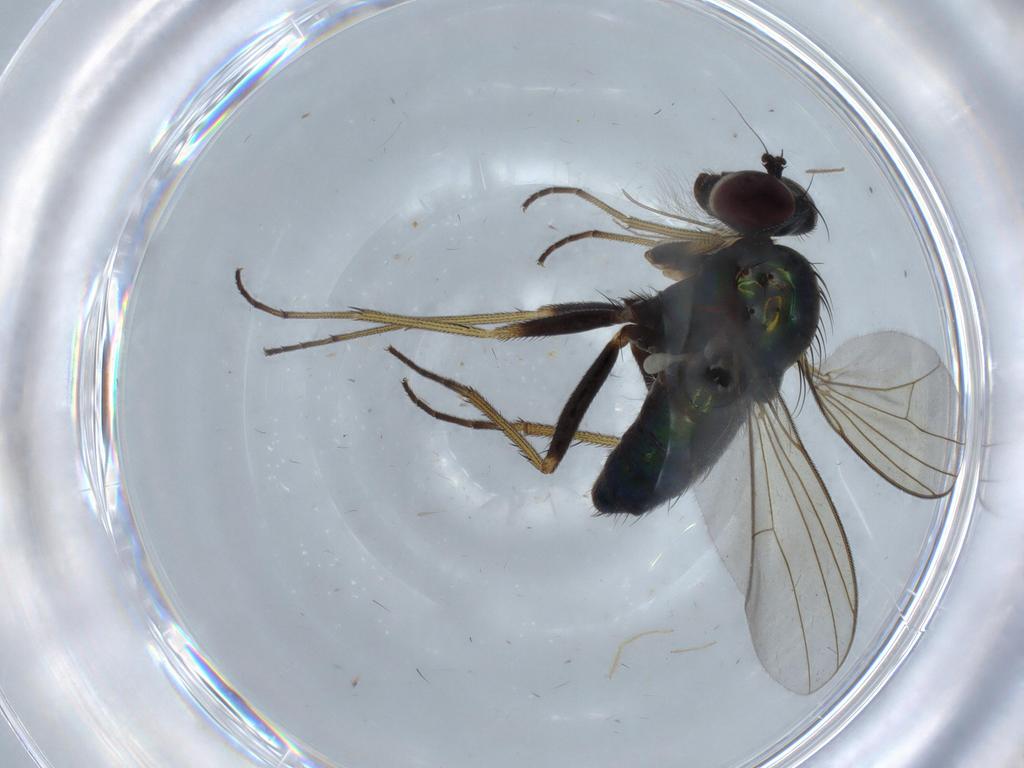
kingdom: Animalia
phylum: Arthropoda
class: Insecta
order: Diptera
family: Dolichopodidae
